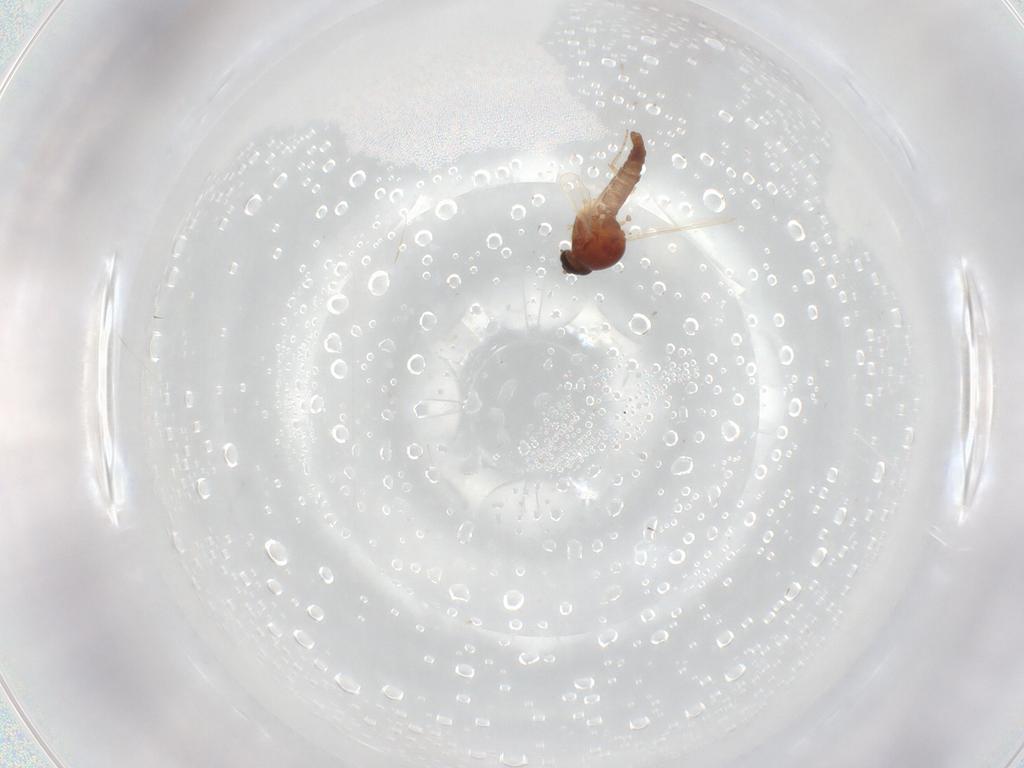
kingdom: Animalia
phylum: Arthropoda
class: Insecta
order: Diptera
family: Ceratopogonidae
